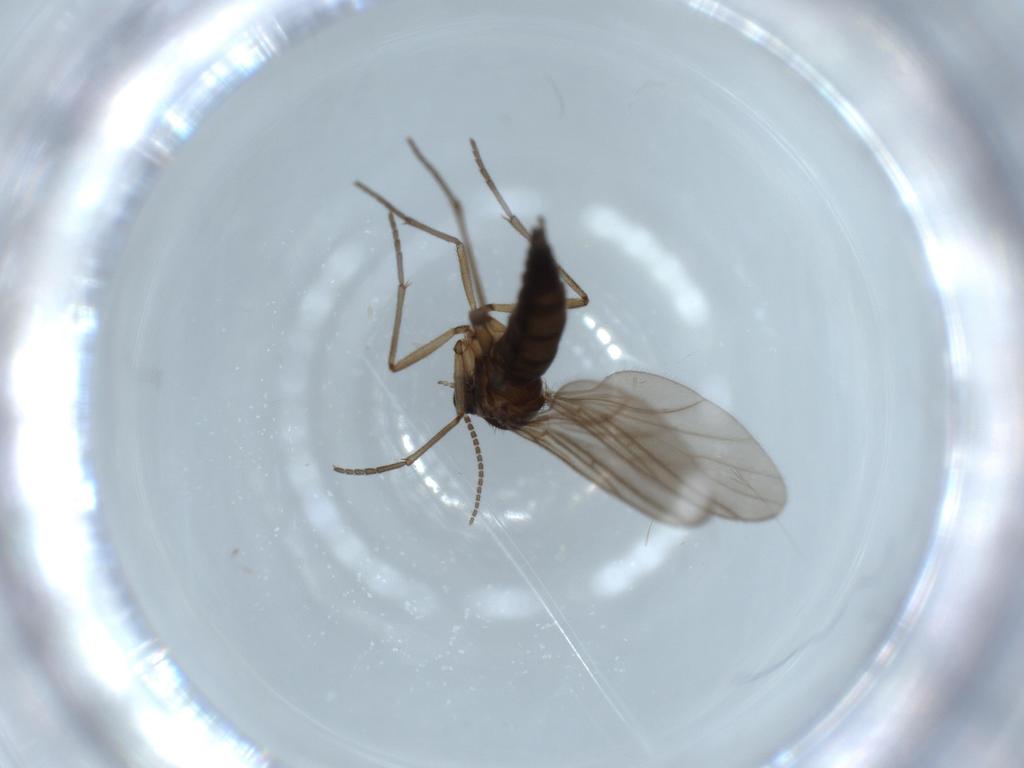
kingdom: Animalia
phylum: Arthropoda
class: Insecta
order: Diptera
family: Sciaridae
